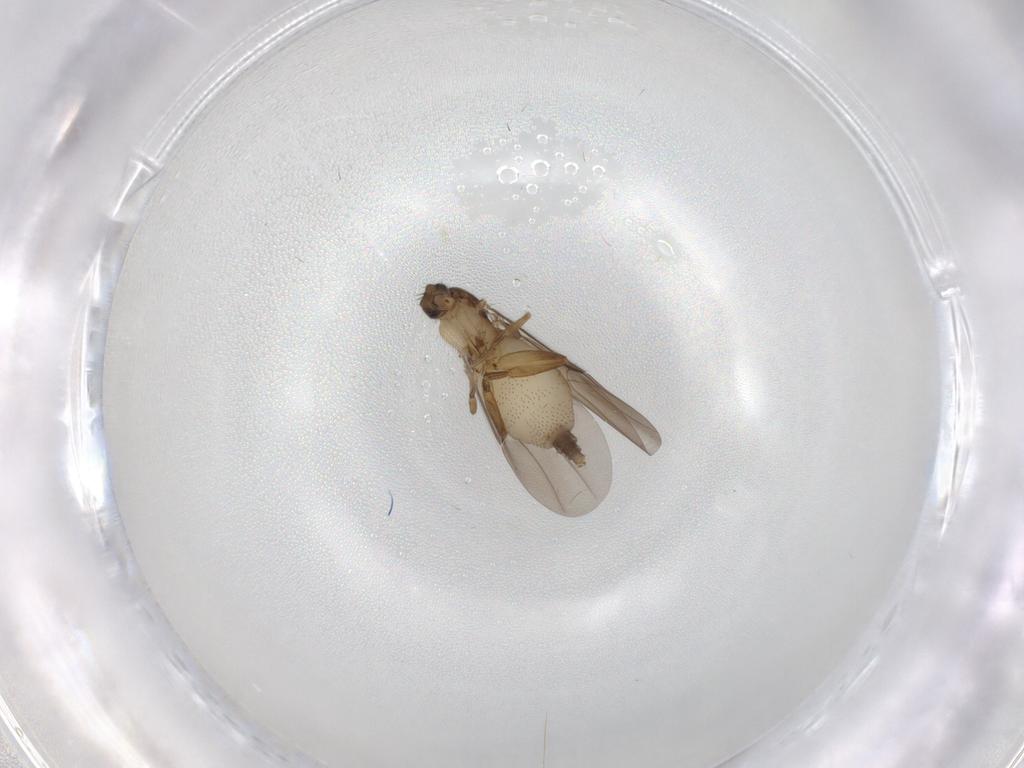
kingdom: Animalia
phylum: Arthropoda
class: Insecta
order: Diptera
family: Phoridae
